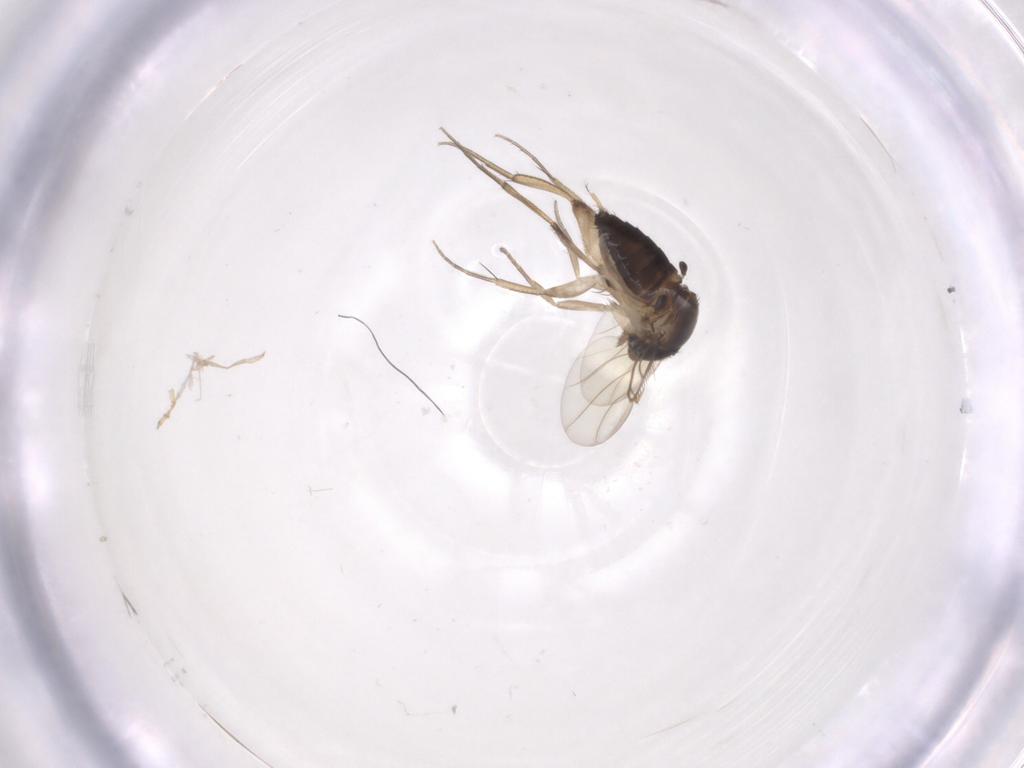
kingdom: Animalia
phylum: Arthropoda
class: Insecta
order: Diptera
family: Phoridae
